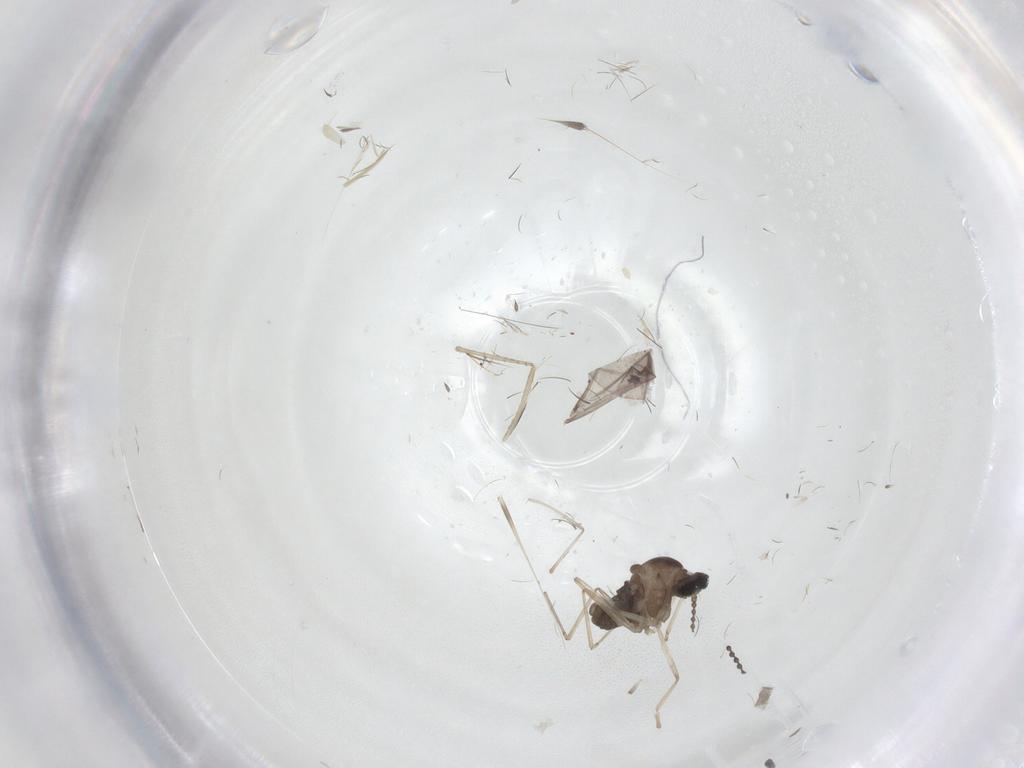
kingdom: Animalia
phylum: Arthropoda
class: Insecta
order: Diptera
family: Cecidomyiidae
